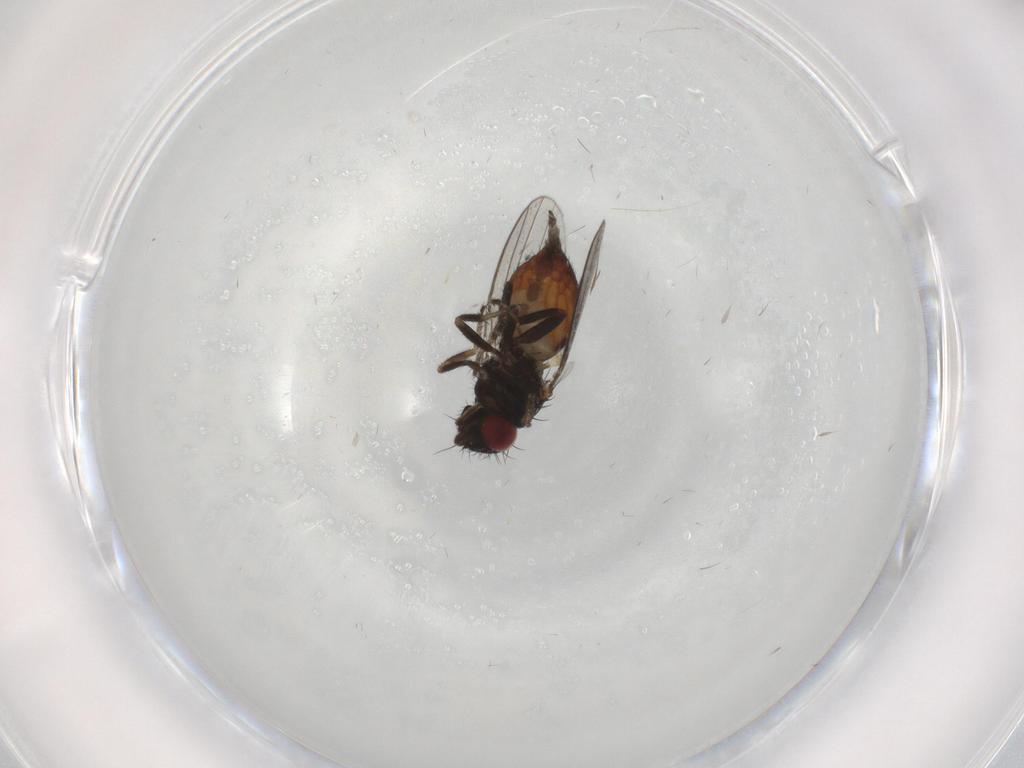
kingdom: Animalia
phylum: Arthropoda
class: Insecta
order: Diptera
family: Milichiidae
